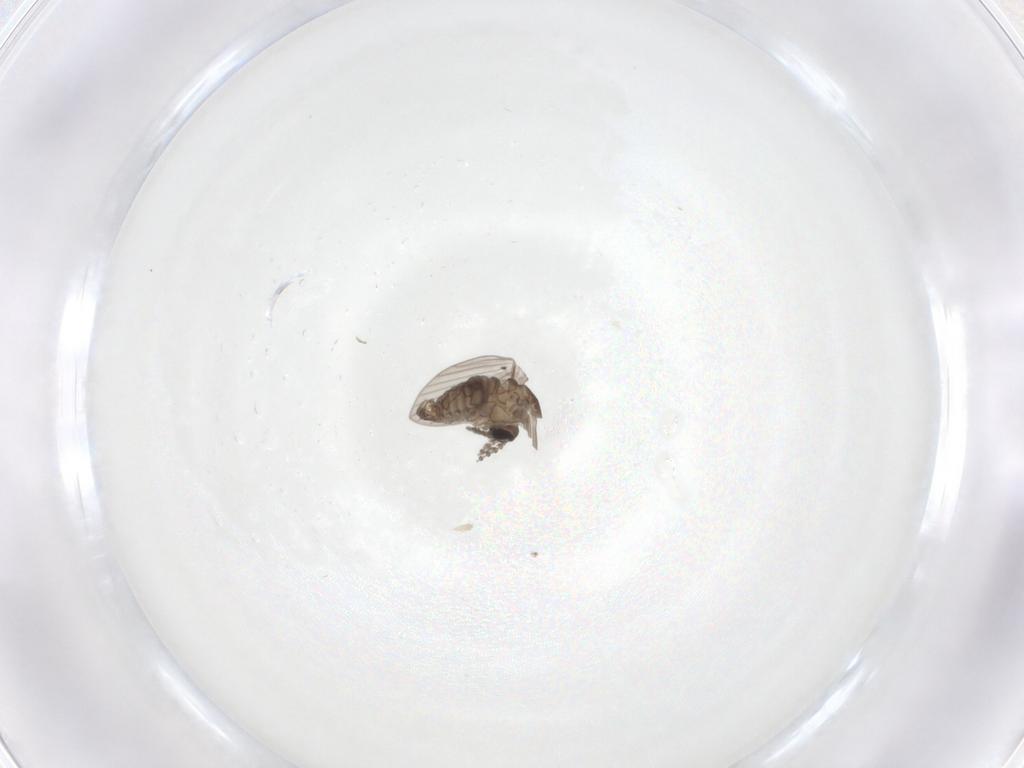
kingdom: Animalia
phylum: Arthropoda
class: Insecta
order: Diptera
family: Psychodidae
